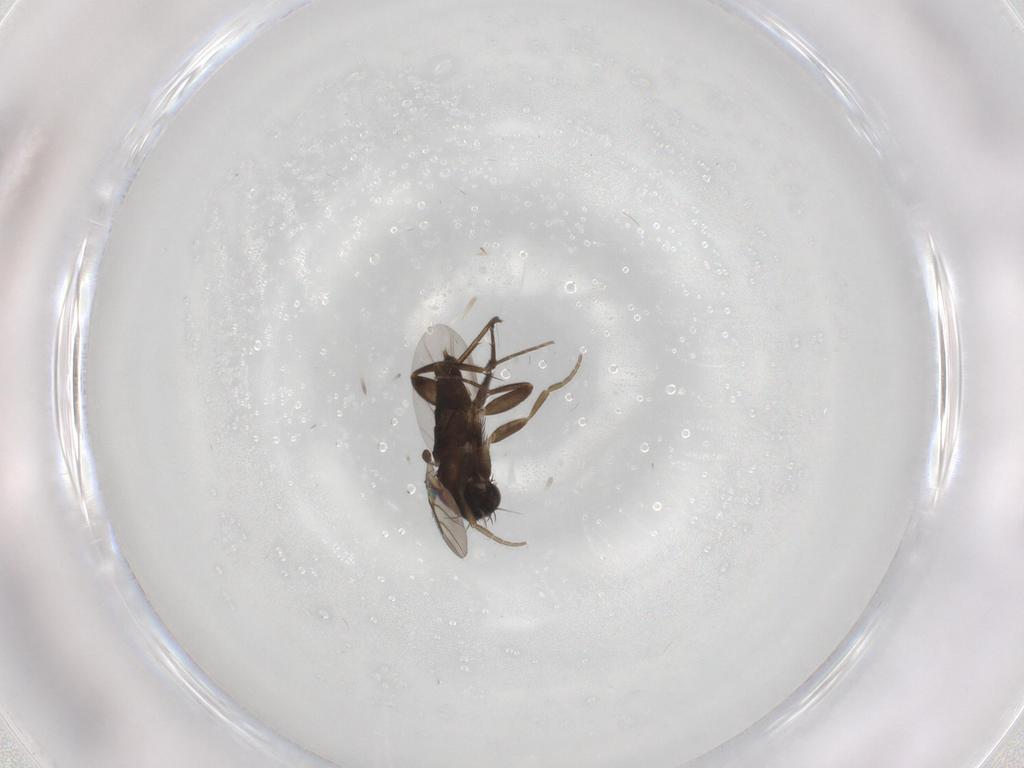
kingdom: Animalia
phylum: Arthropoda
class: Insecta
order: Diptera
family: Phoridae
